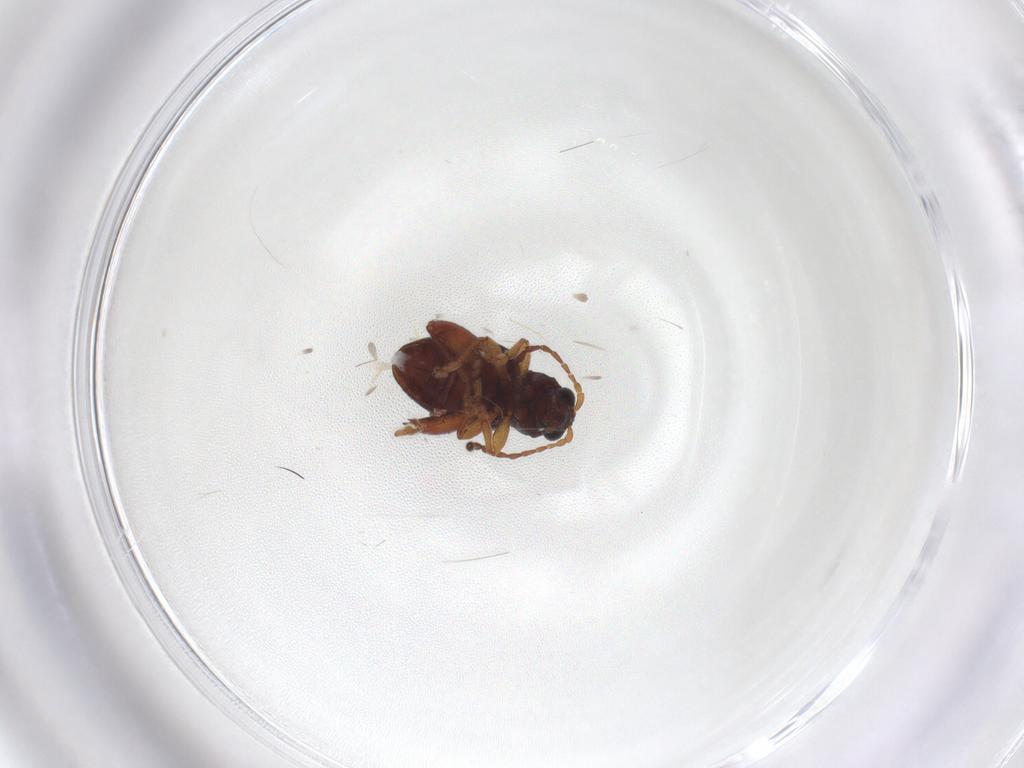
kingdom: Animalia
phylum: Arthropoda
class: Insecta
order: Coleoptera
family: Chrysomelidae
